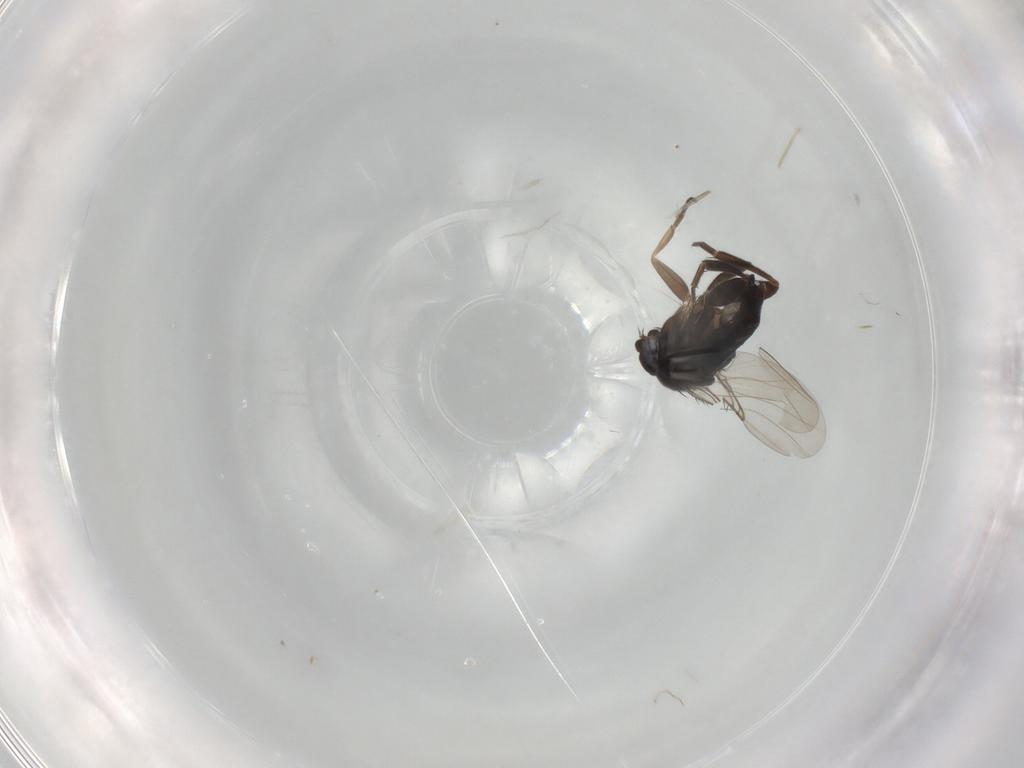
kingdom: Animalia
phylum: Arthropoda
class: Insecta
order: Diptera
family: Phoridae
